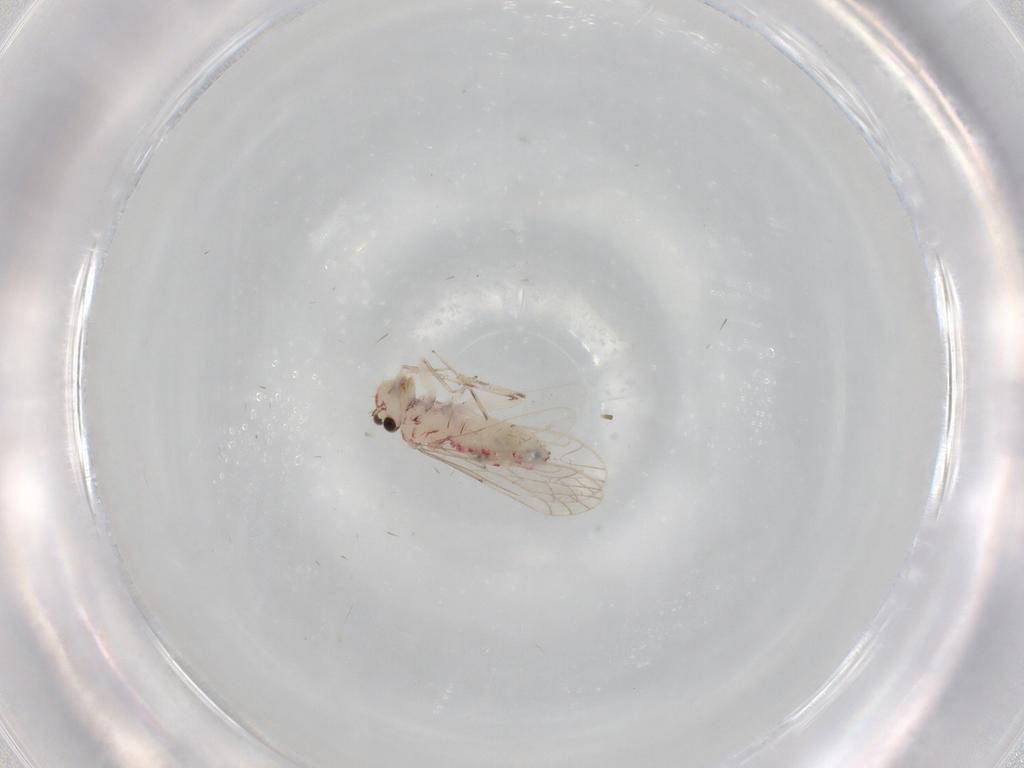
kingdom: Animalia
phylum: Arthropoda
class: Insecta
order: Psocodea
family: Caeciliusidae
